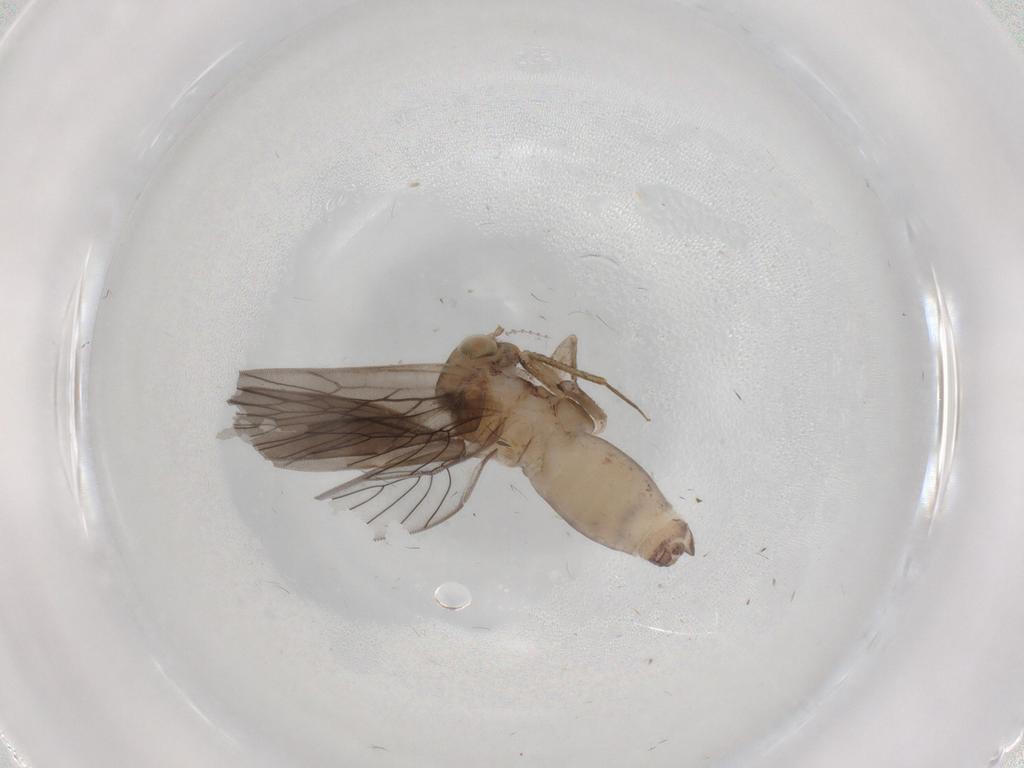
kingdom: Animalia
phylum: Arthropoda
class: Insecta
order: Psocodea
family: Lepidopsocidae
